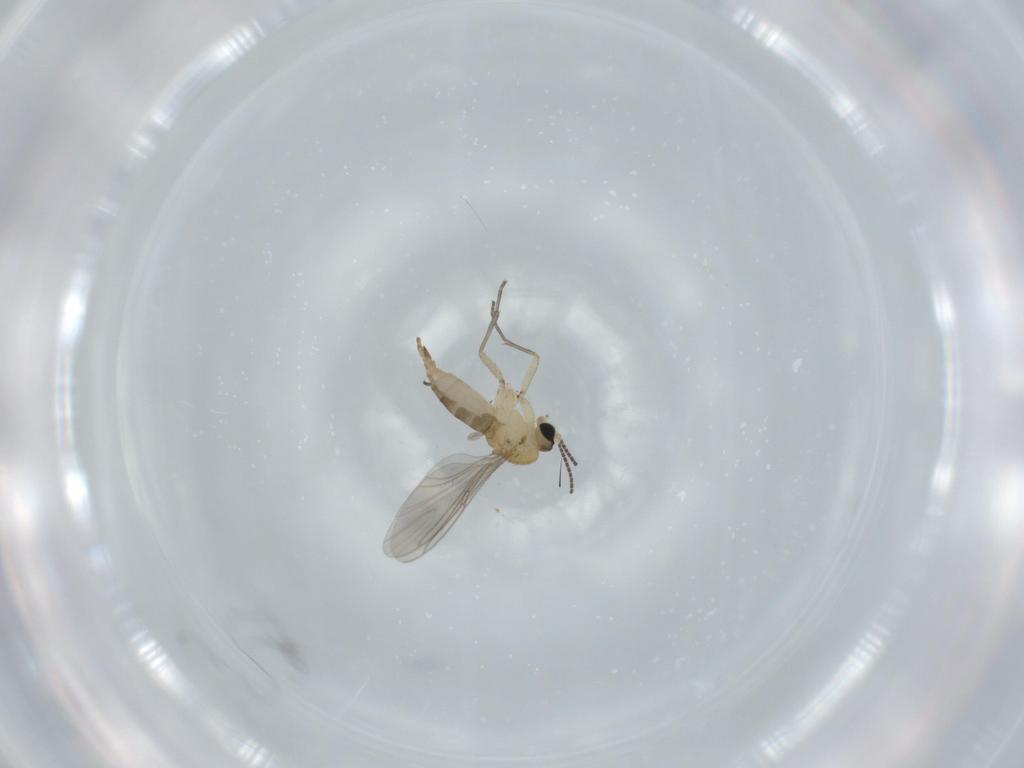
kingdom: Animalia
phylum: Arthropoda
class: Insecta
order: Diptera
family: Sciaridae
